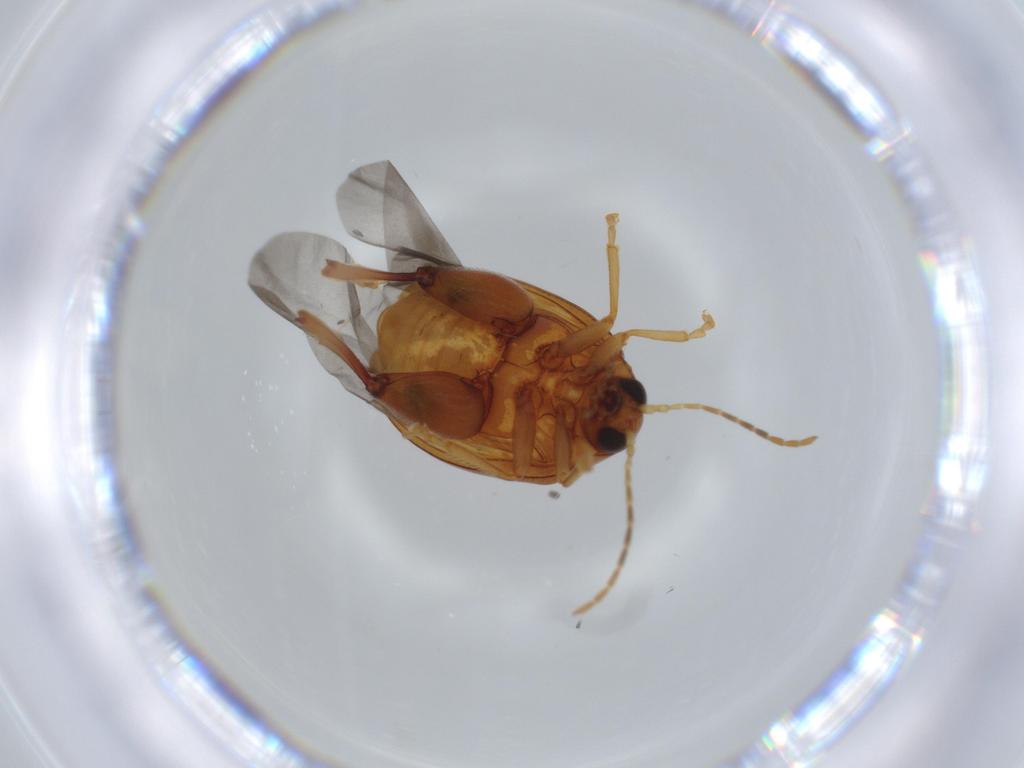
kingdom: Animalia
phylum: Arthropoda
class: Insecta
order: Coleoptera
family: Chrysomelidae
